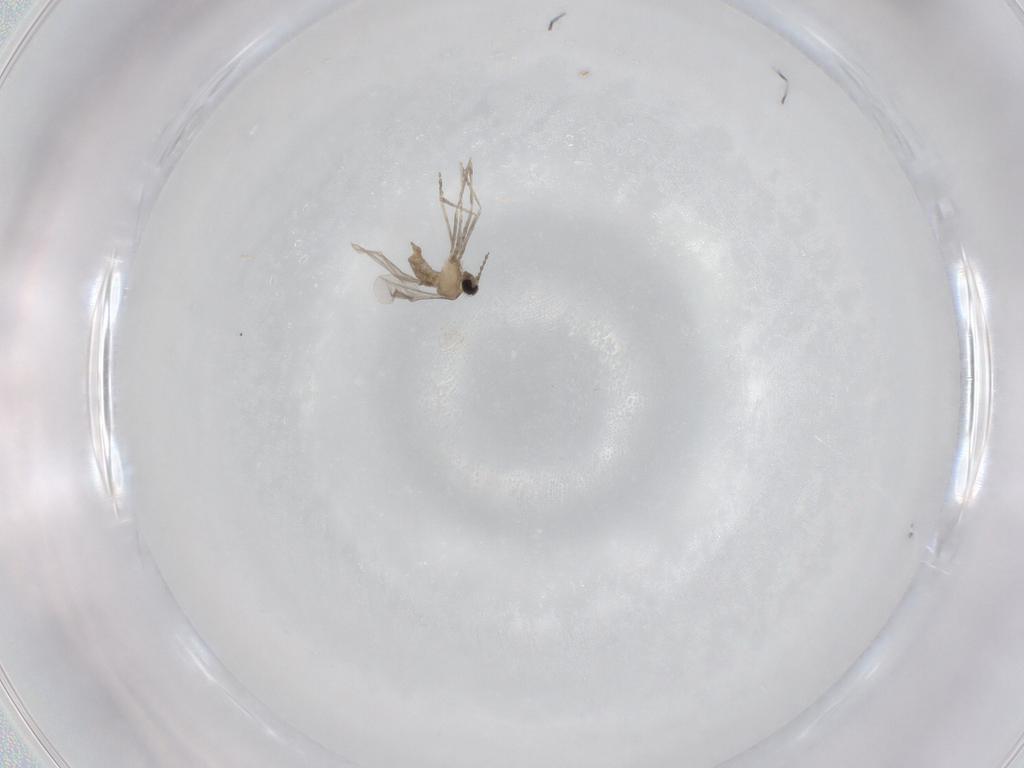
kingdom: Animalia
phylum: Arthropoda
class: Insecta
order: Diptera
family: Cecidomyiidae
